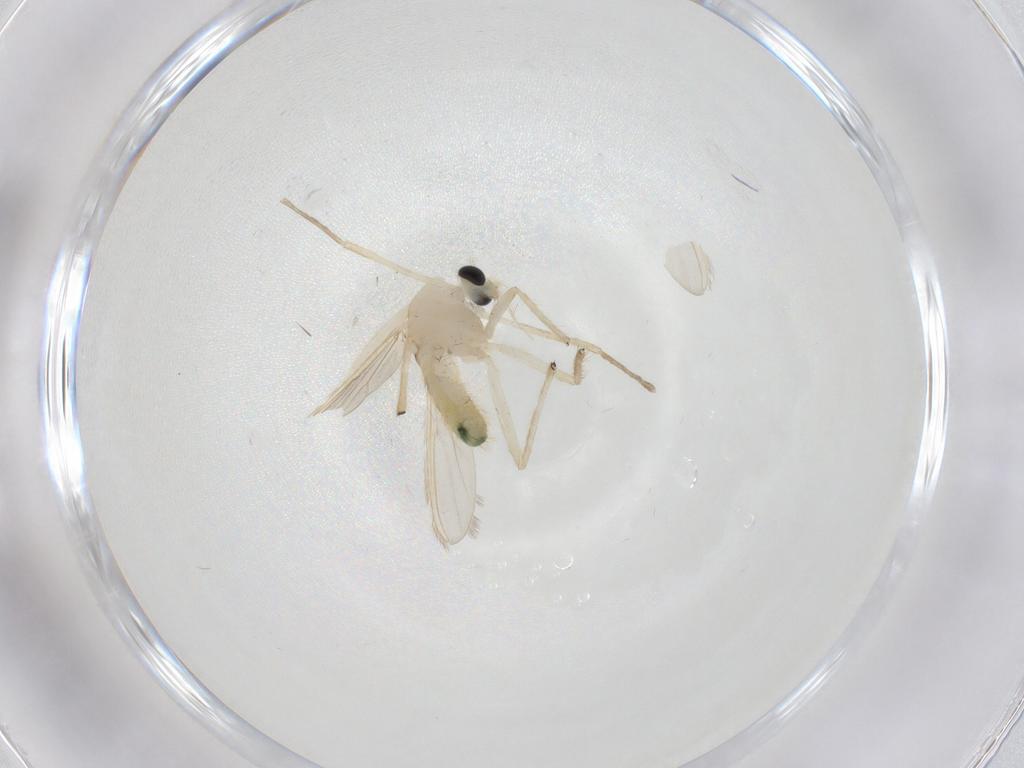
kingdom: Animalia
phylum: Arthropoda
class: Insecta
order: Diptera
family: Chironomidae
